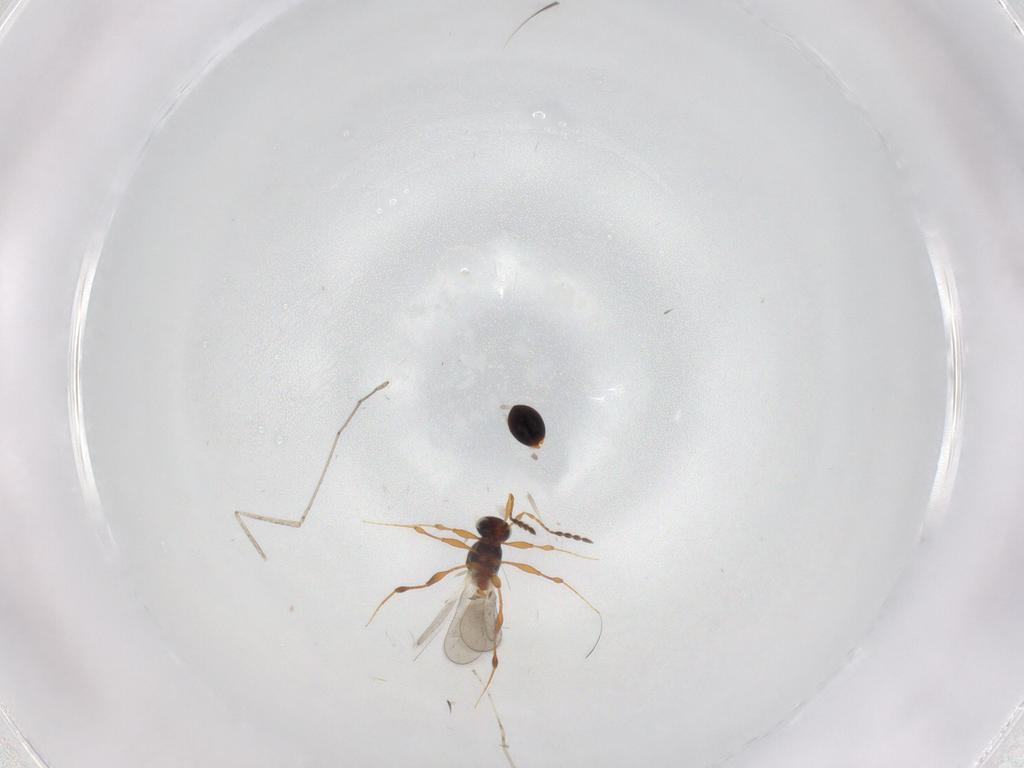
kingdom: Animalia
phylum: Arthropoda
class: Insecta
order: Hymenoptera
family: Platygastridae
